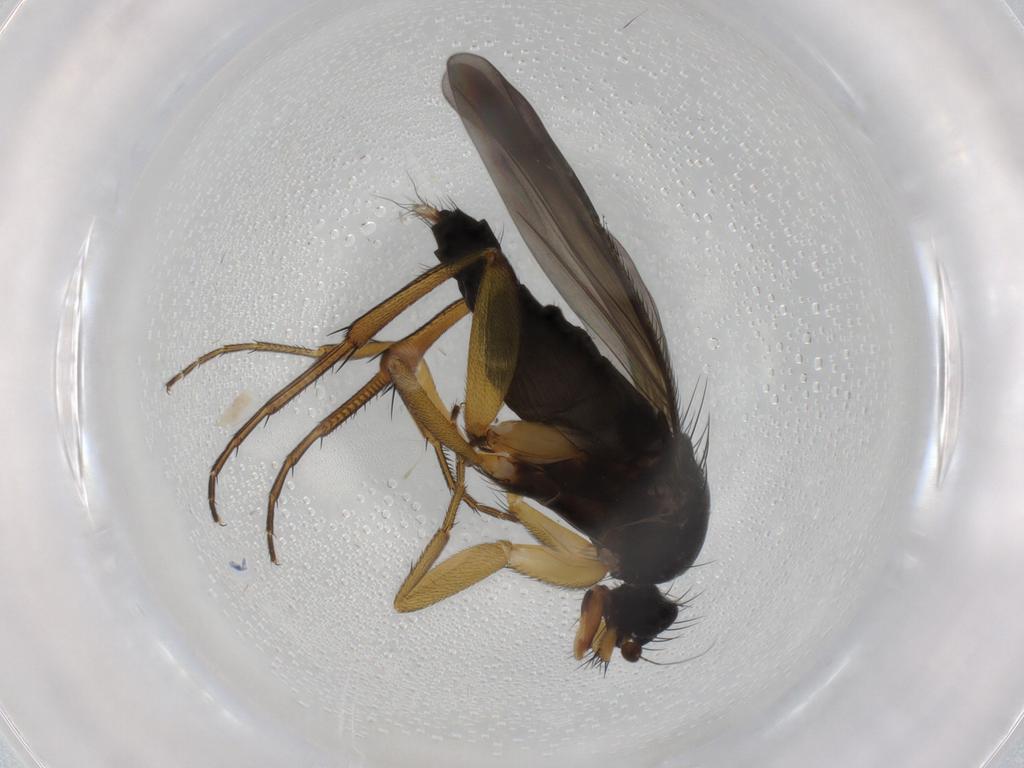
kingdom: Animalia
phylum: Arthropoda
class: Insecta
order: Diptera
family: Phoridae
